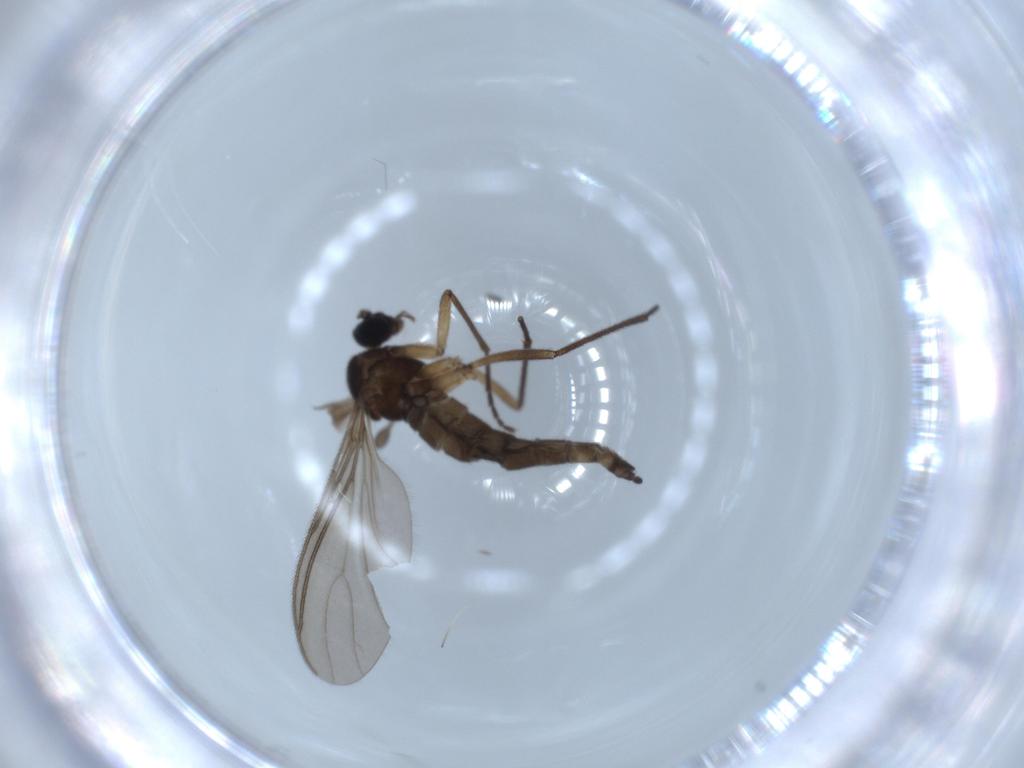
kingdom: Animalia
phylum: Arthropoda
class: Insecta
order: Diptera
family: Sciaridae
